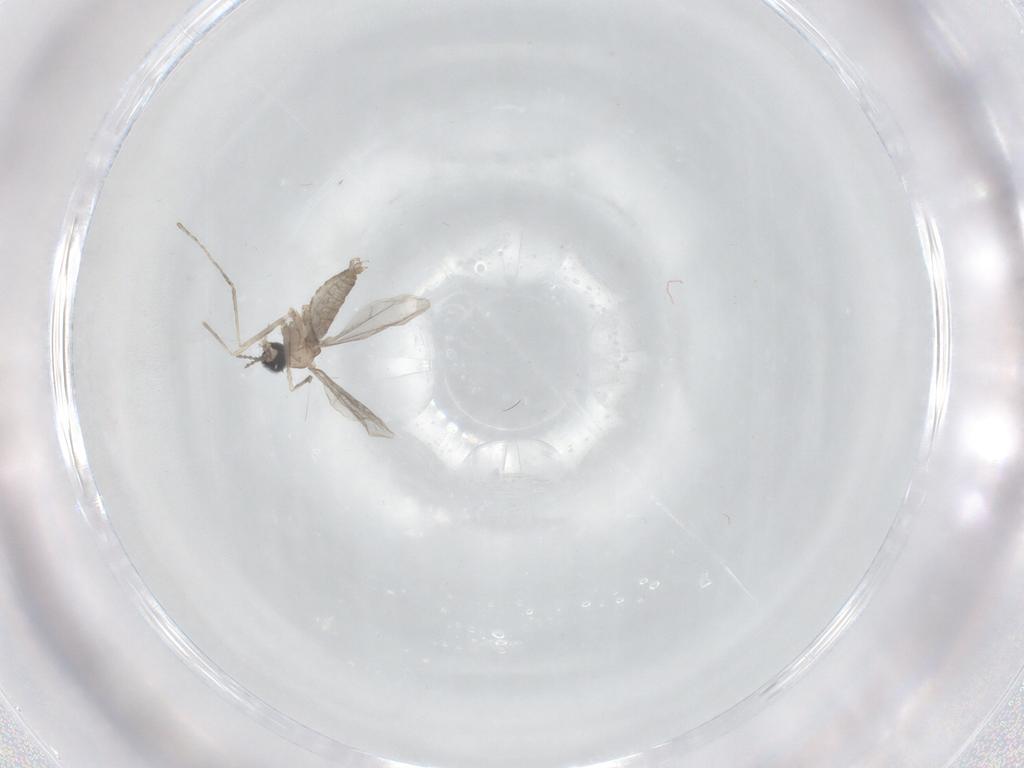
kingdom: Animalia
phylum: Arthropoda
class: Insecta
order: Diptera
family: Cecidomyiidae
